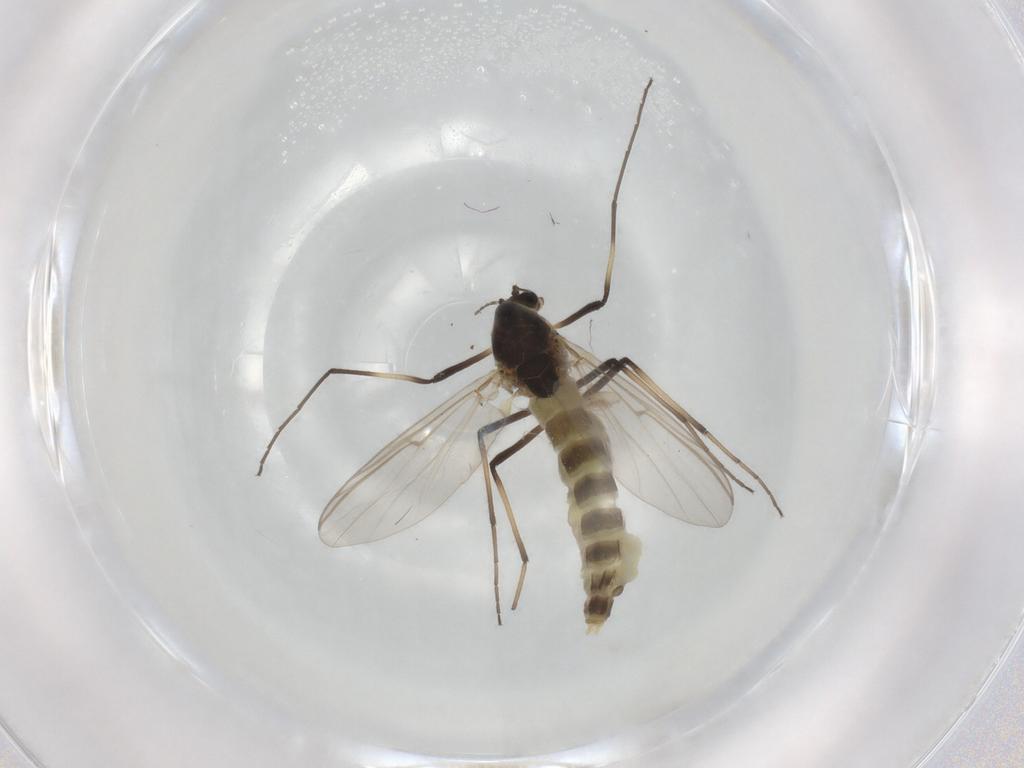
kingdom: Animalia
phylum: Arthropoda
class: Insecta
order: Diptera
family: Chironomidae
